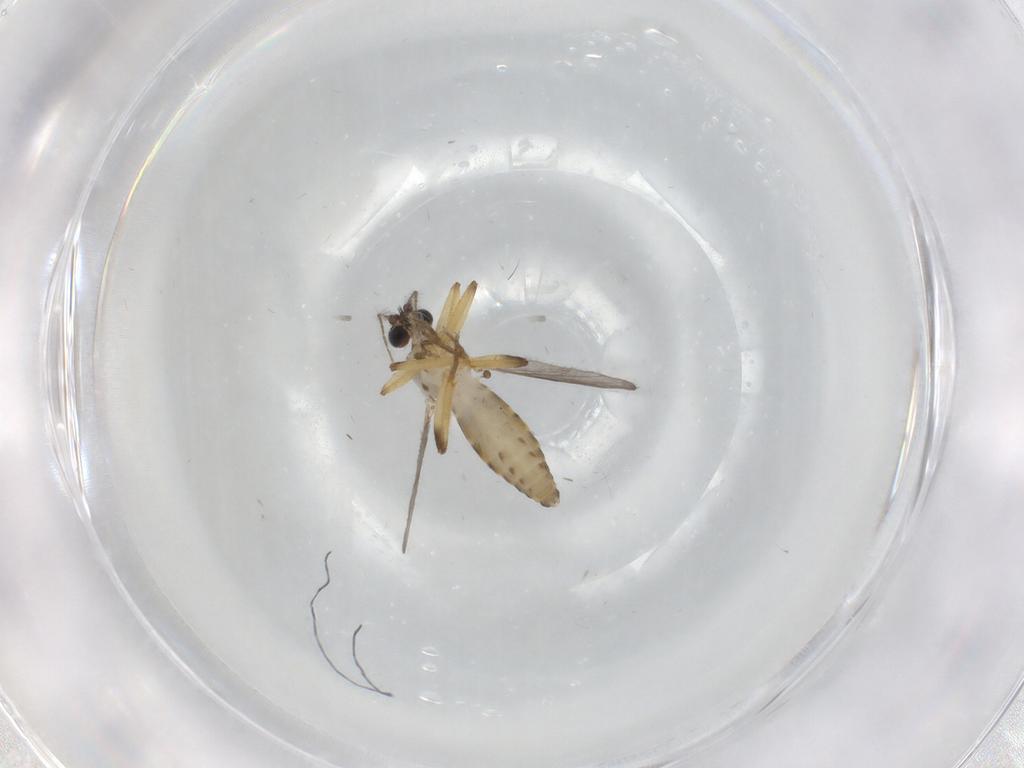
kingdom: Animalia
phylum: Arthropoda
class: Insecta
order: Diptera
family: Ceratopogonidae
